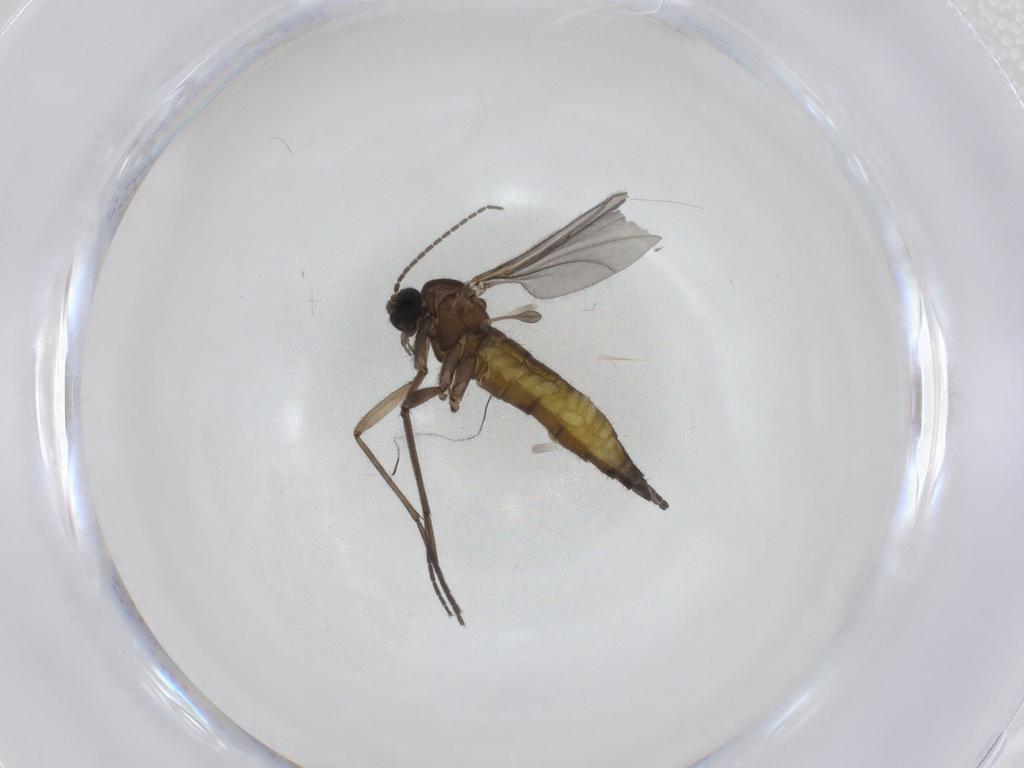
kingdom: Animalia
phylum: Arthropoda
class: Insecta
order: Diptera
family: Sciaridae
